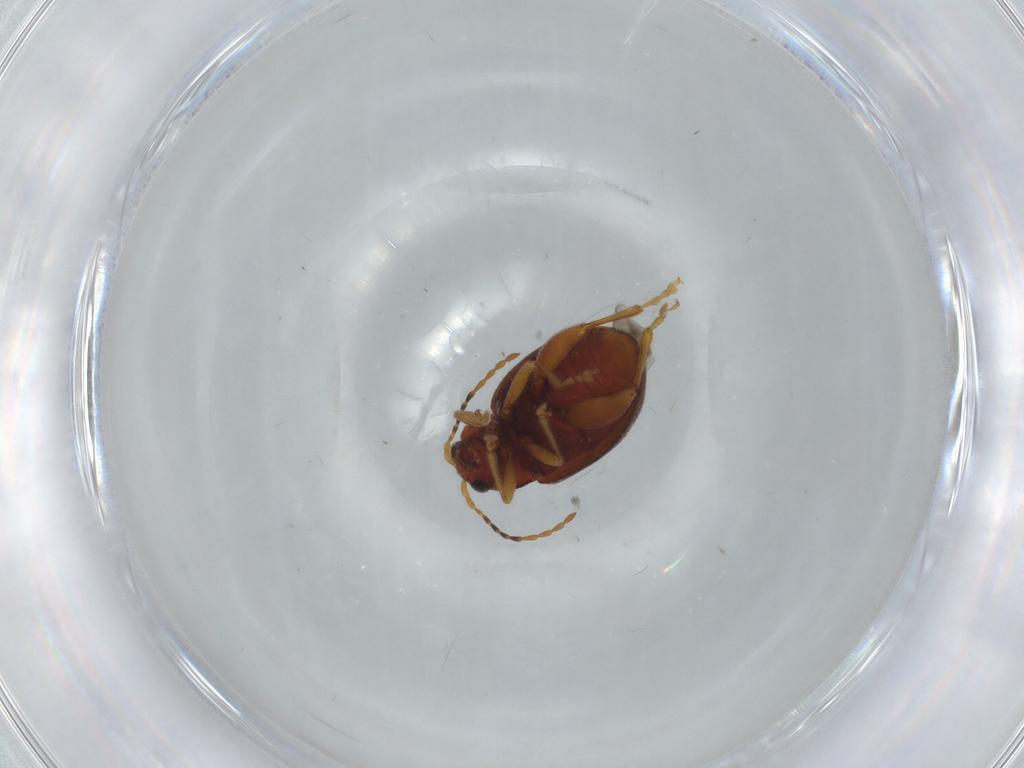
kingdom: Animalia
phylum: Arthropoda
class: Insecta
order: Coleoptera
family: Chrysomelidae
